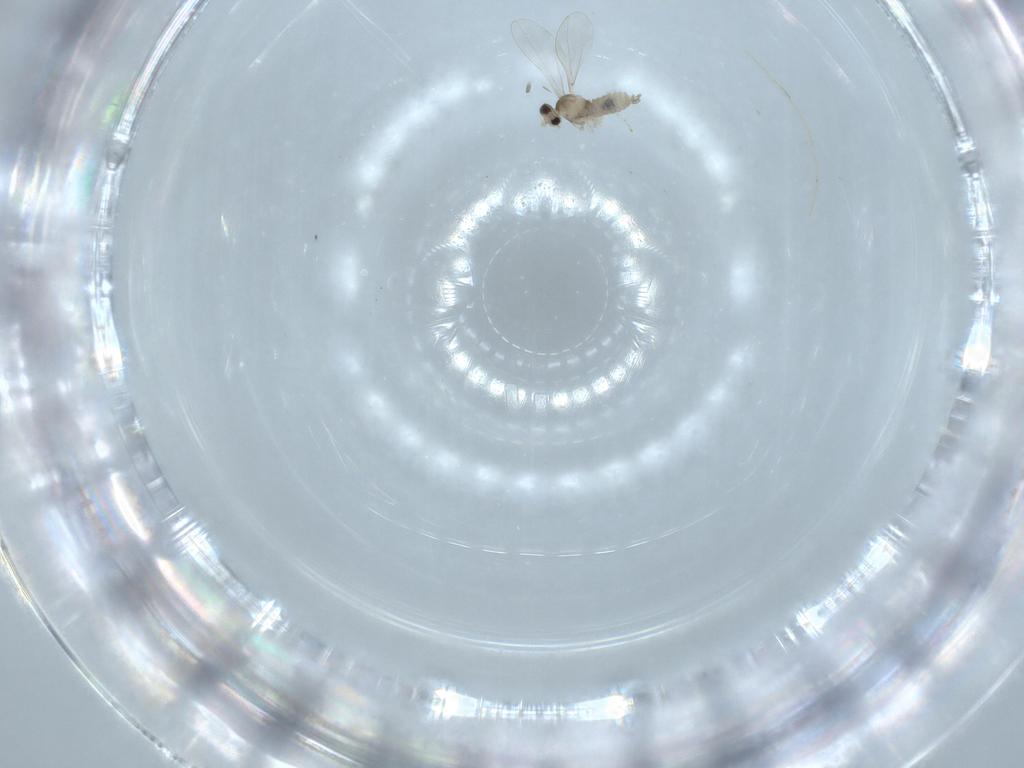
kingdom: Animalia
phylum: Arthropoda
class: Insecta
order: Diptera
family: Cecidomyiidae
